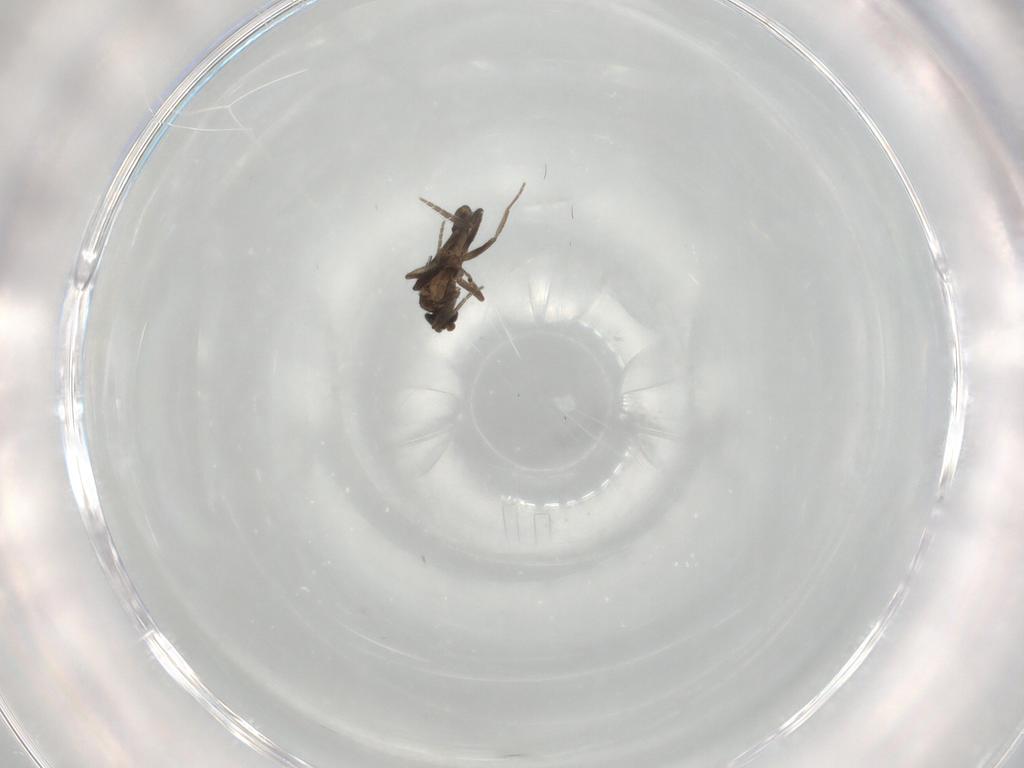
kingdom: Animalia
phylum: Arthropoda
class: Insecta
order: Diptera
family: Phoridae
